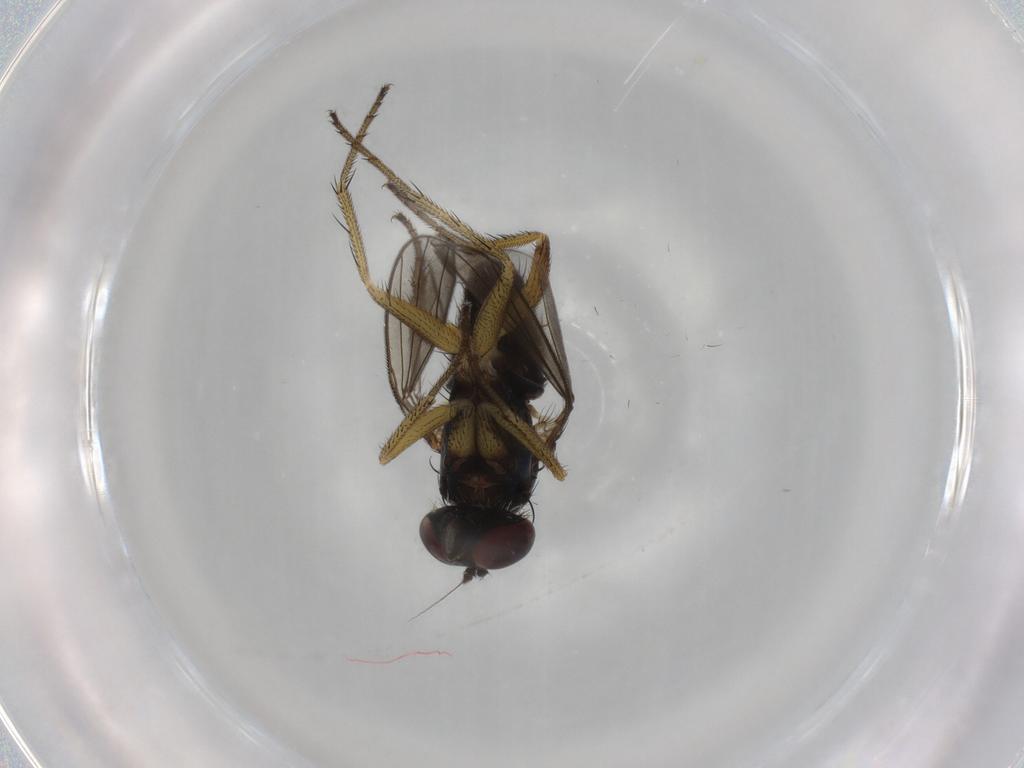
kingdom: Animalia
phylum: Arthropoda
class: Insecta
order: Diptera
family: Dolichopodidae
